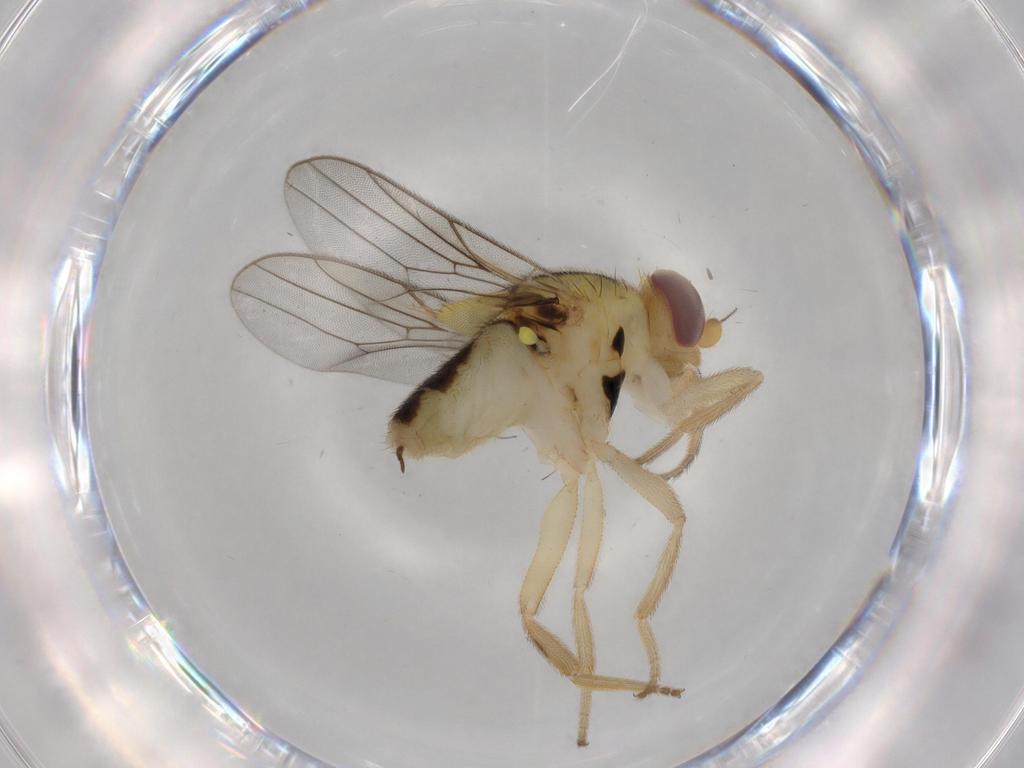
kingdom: Animalia
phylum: Arthropoda
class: Insecta
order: Diptera
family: Chloropidae
